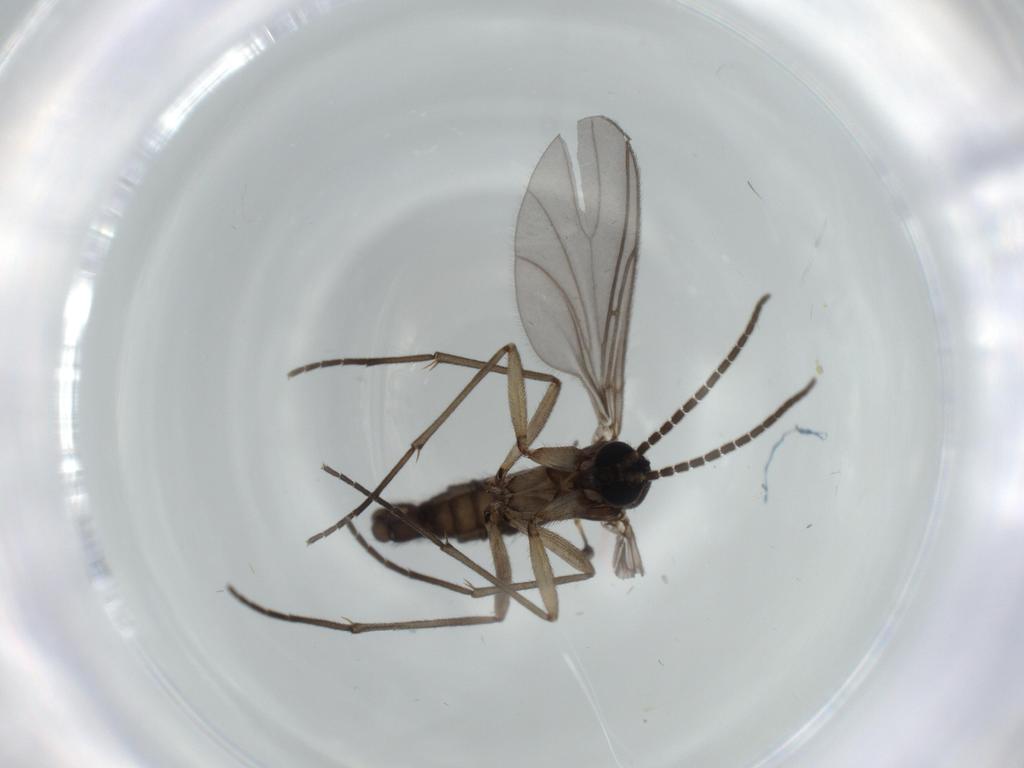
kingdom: Animalia
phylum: Arthropoda
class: Insecta
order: Diptera
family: Sciaridae
